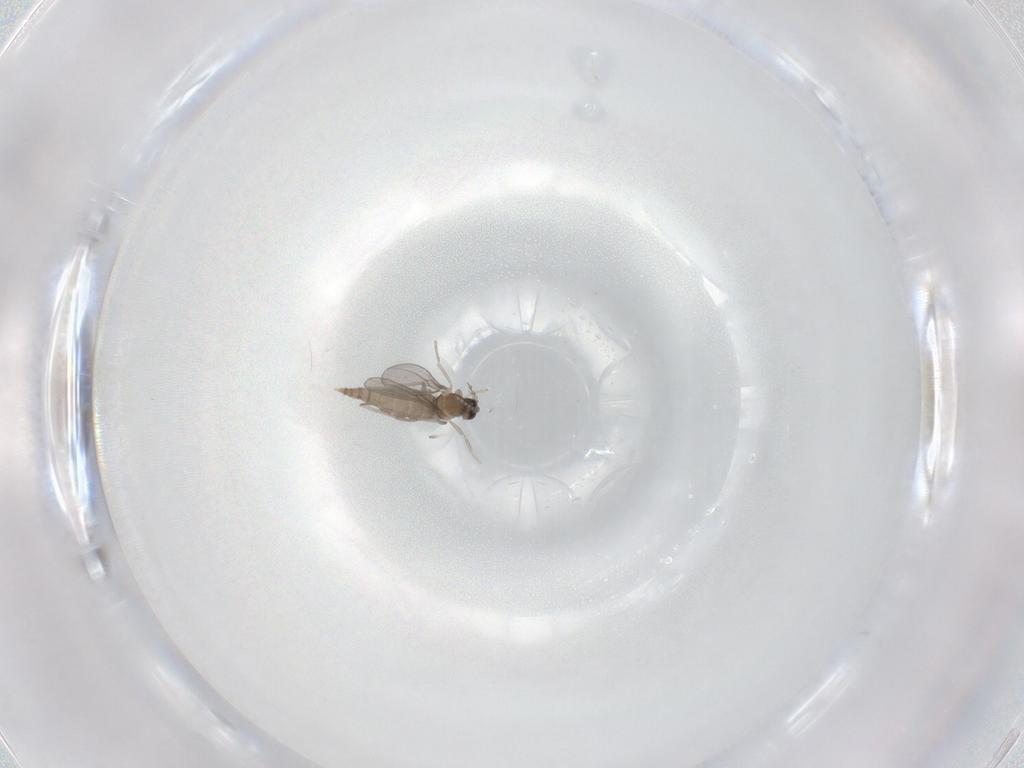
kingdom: Animalia
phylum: Arthropoda
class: Insecta
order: Diptera
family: Cecidomyiidae
